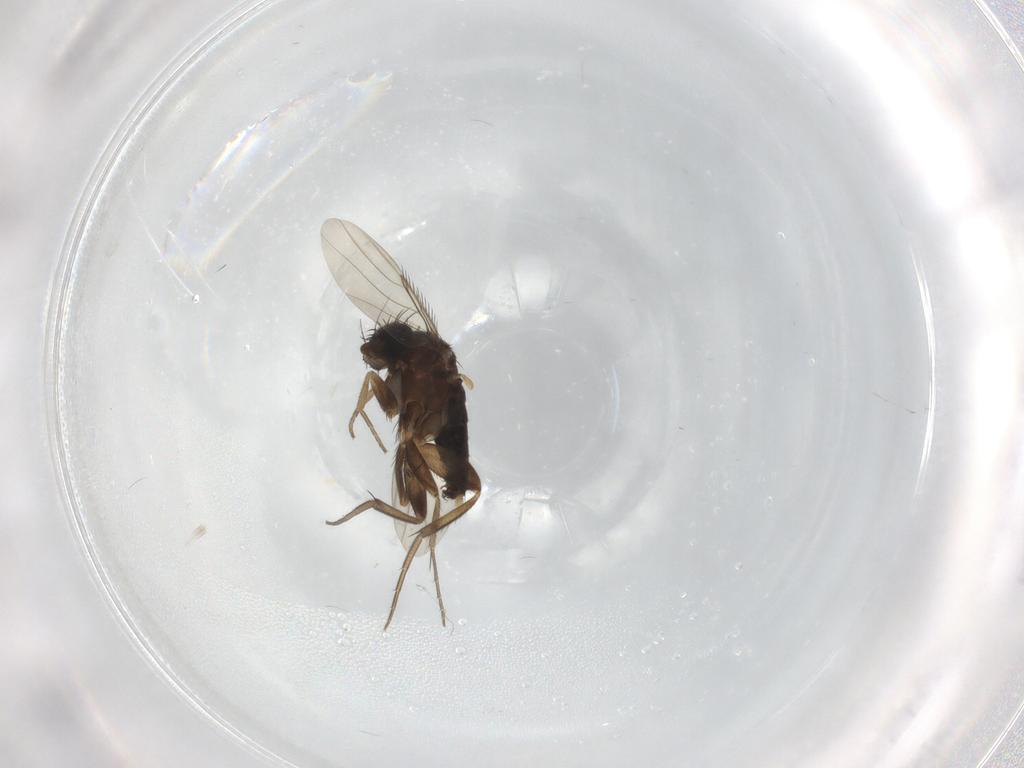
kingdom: Animalia
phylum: Arthropoda
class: Insecta
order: Diptera
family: Phoridae
